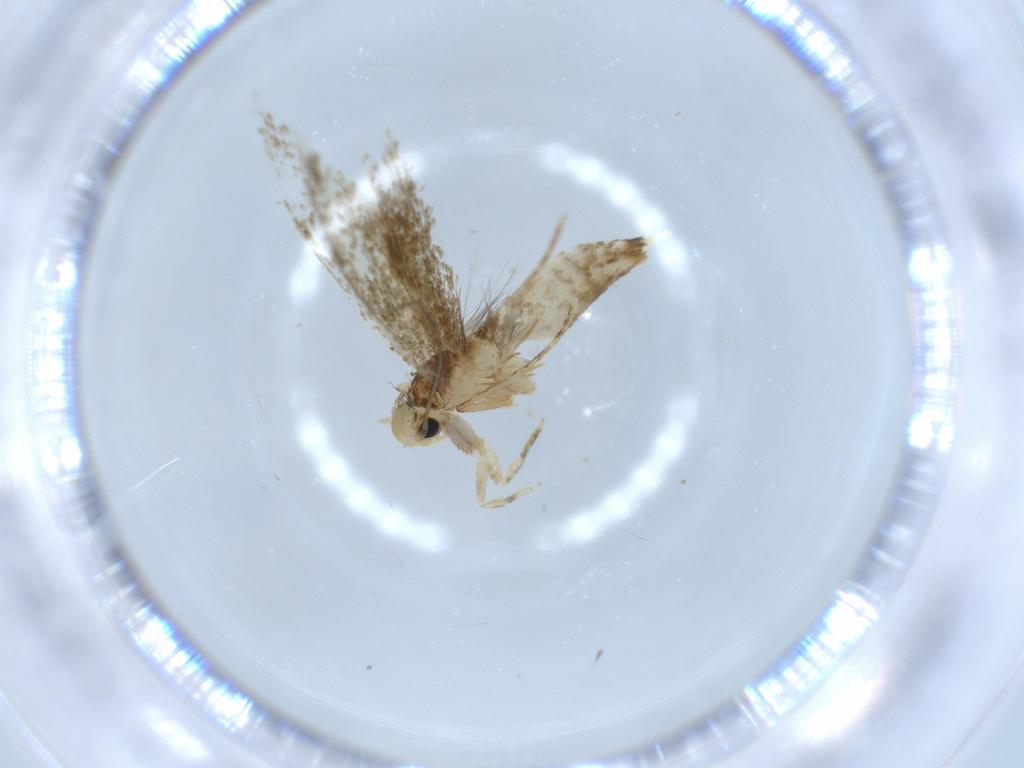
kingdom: Animalia
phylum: Arthropoda
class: Insecta
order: Lepidoptera
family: Tineidae
